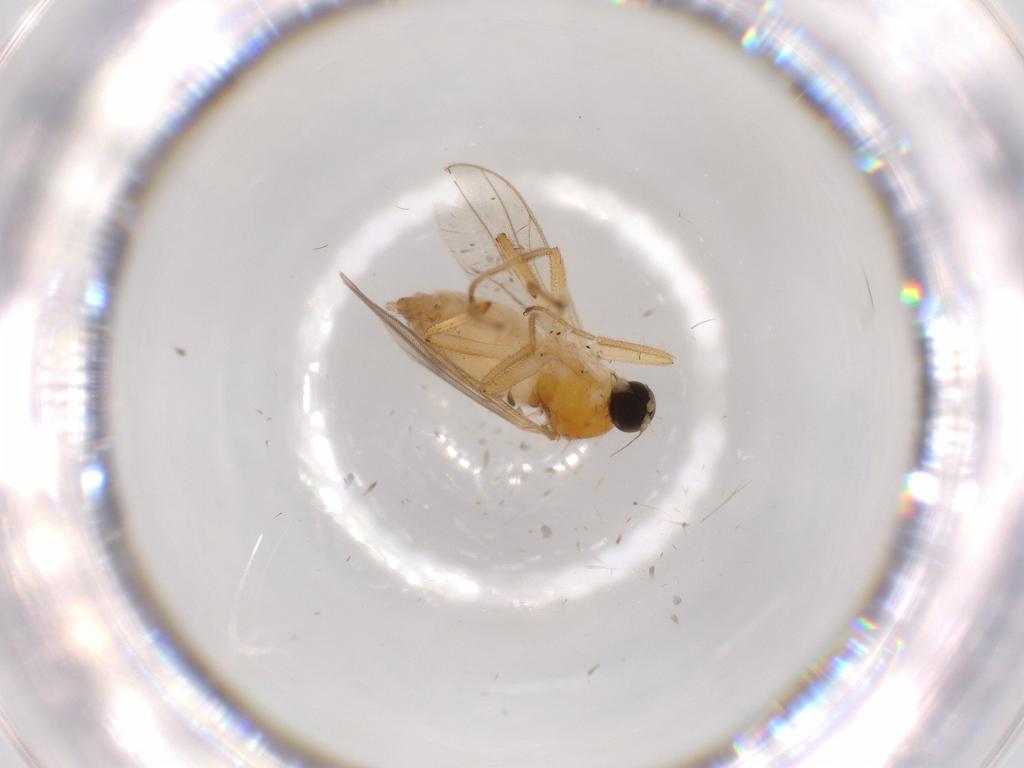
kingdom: Animalia
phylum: Arthropoda
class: Insecta
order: Diptera
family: Hybotidae
